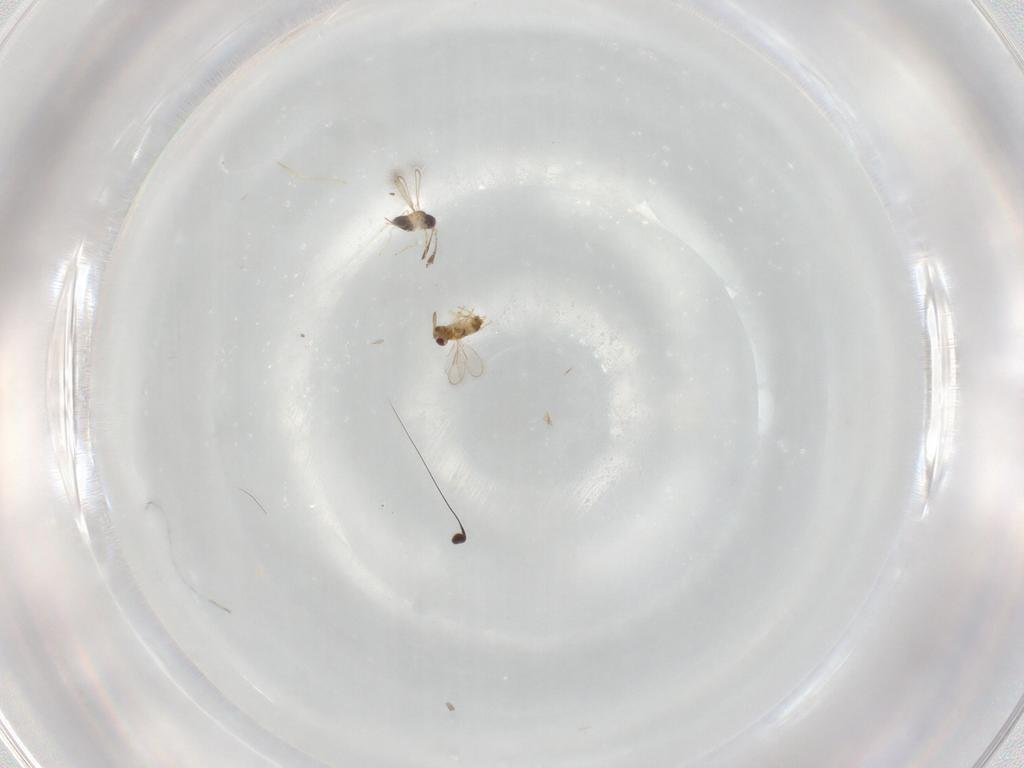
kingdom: Animalia
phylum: Arthropoda
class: Insecta
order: Hymenoptera
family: Aphelinidae
